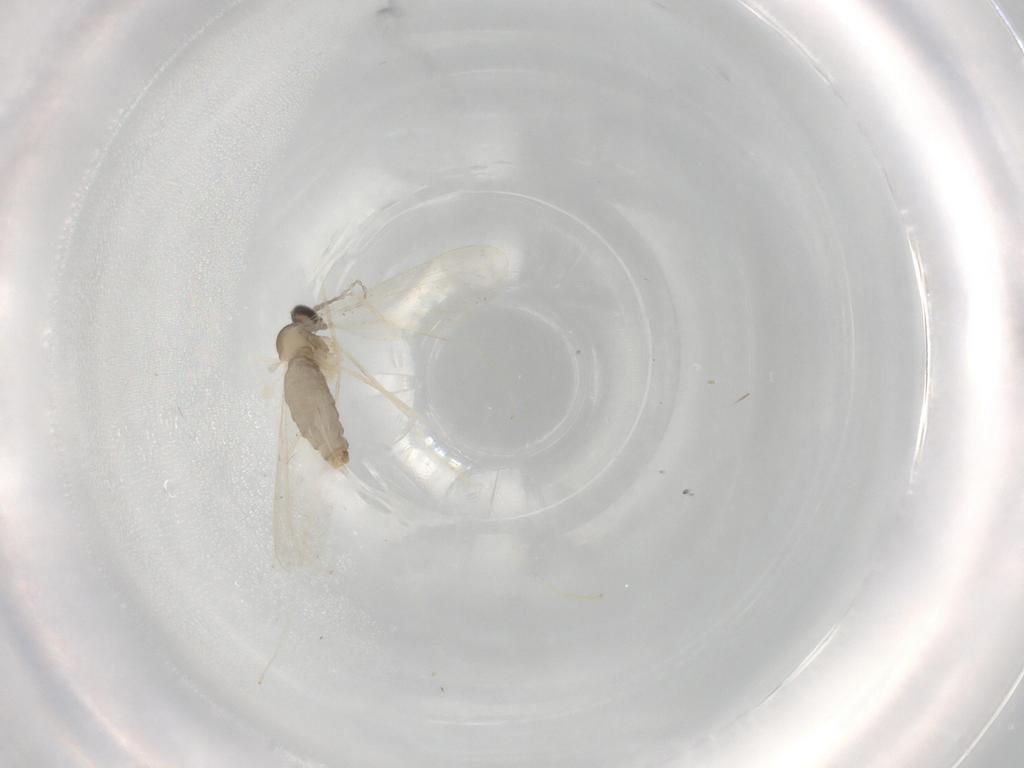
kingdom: Animalia
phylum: Arthropoda
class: Insecta
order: Diptera
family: Cecidomyiidae
